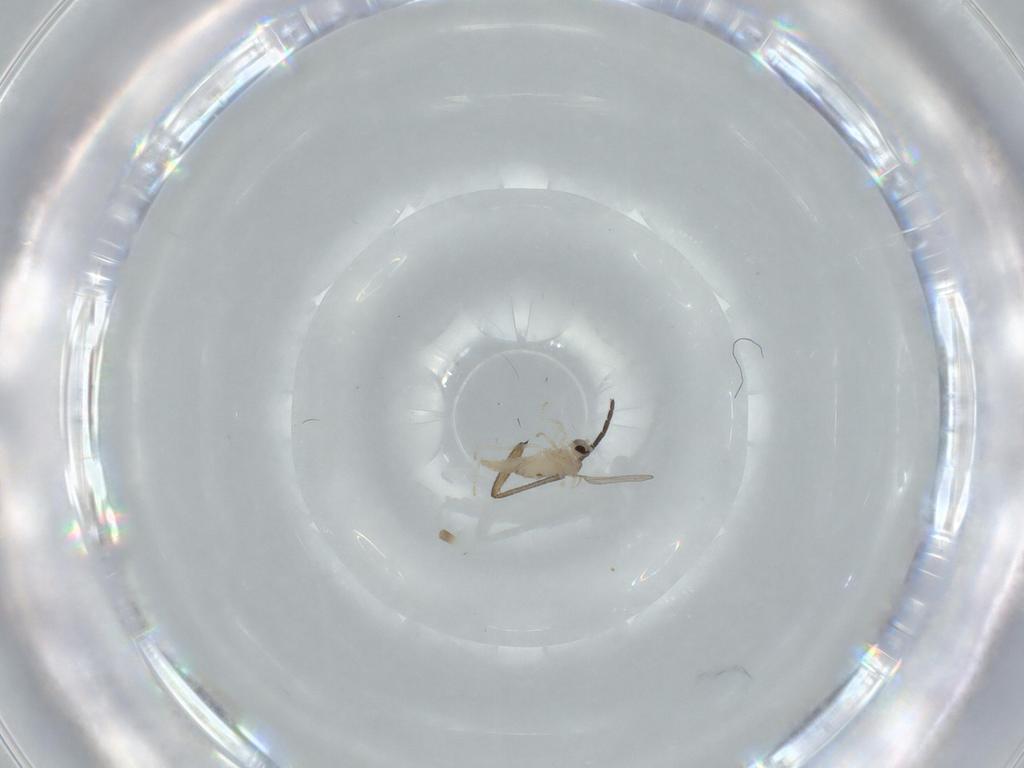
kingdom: Animalia
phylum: Arthropoda
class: Insecta
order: Diptera
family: Cecidomyiidae
